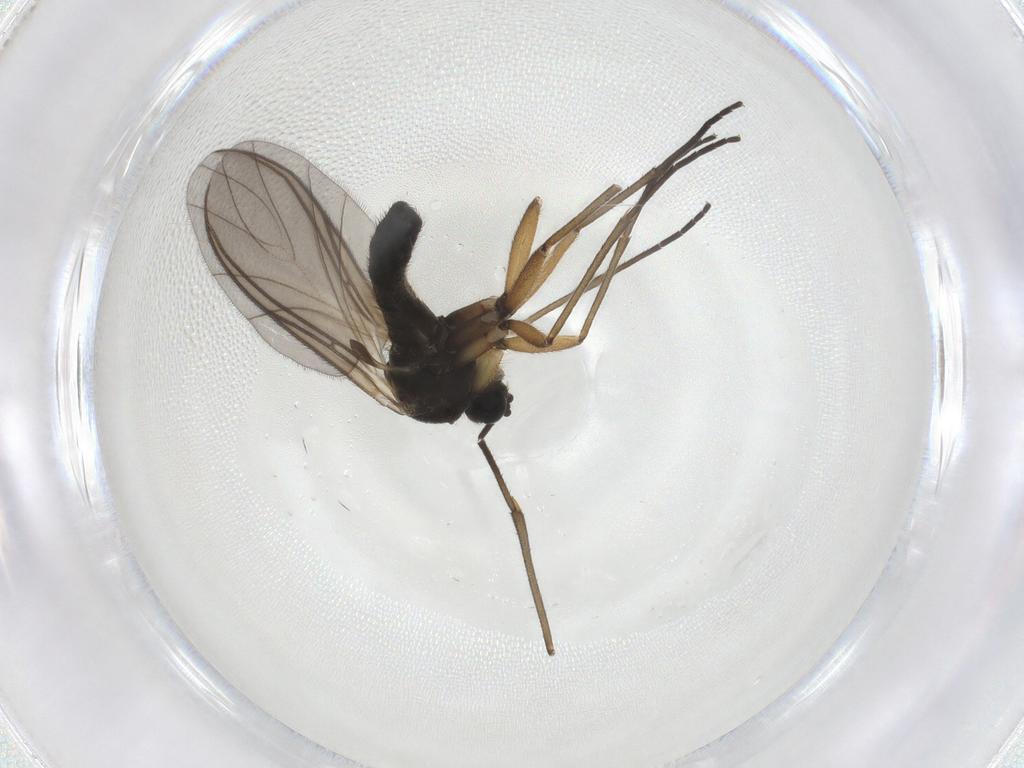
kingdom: Animalia
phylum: Arthropoda
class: Insecta
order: Diptera
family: Sciaridae
